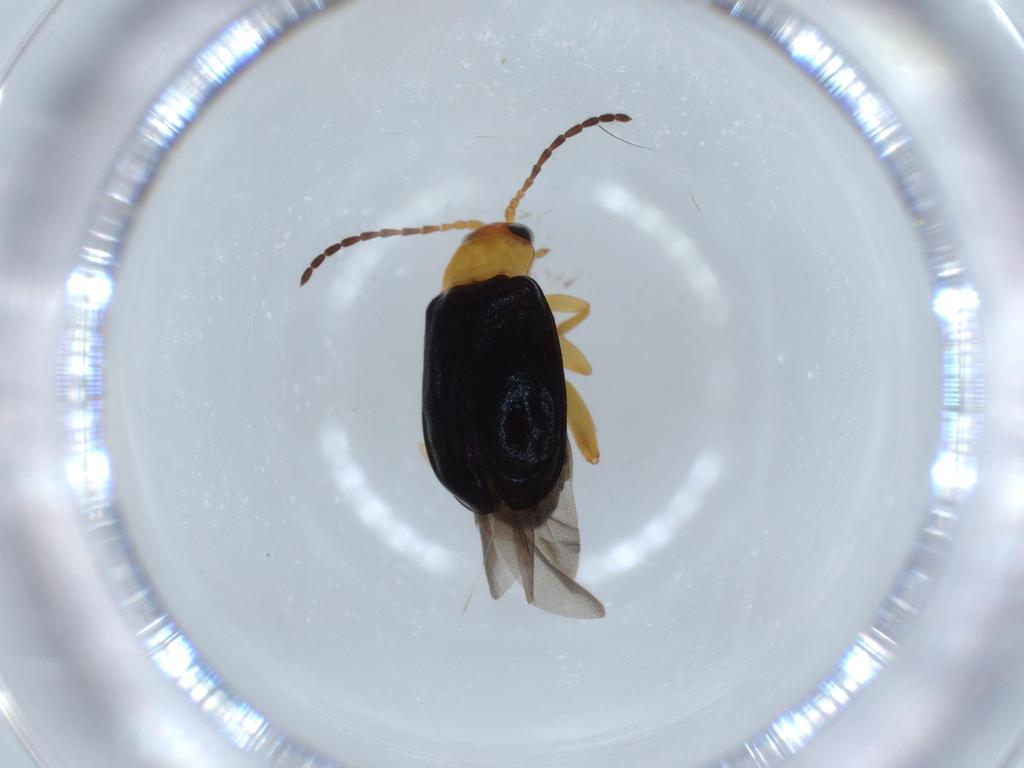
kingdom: Animalia
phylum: Arthropoda
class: Insecta
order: Coleoptera
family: Chrysomelidae
